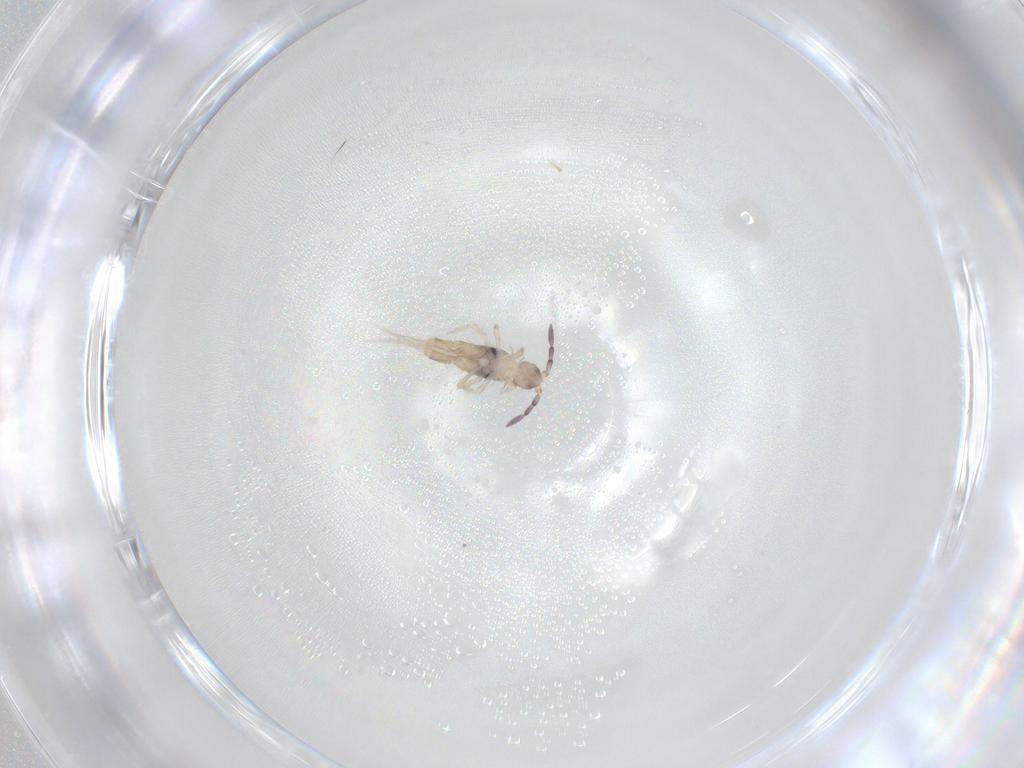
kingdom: Animalia
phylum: Arthropoda
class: Collembola
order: Entomobryomorpha
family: Entomobryidae
